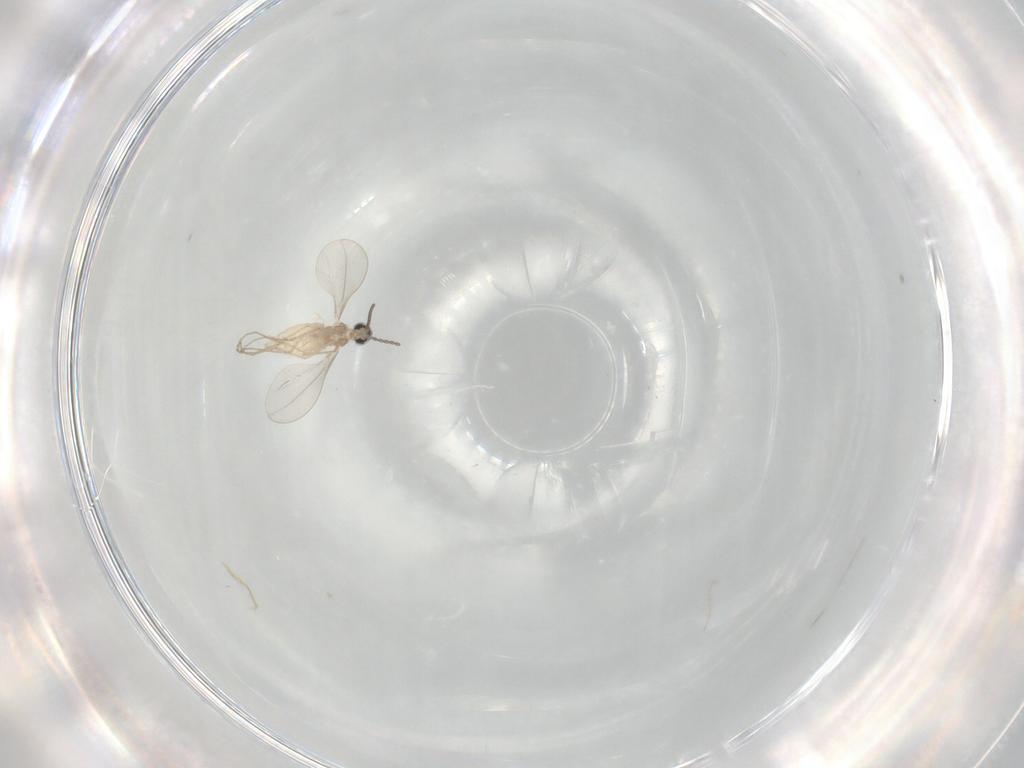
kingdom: Animalia
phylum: Arthropoda
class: Insecta
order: Diptera
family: Cecidomyiidae
